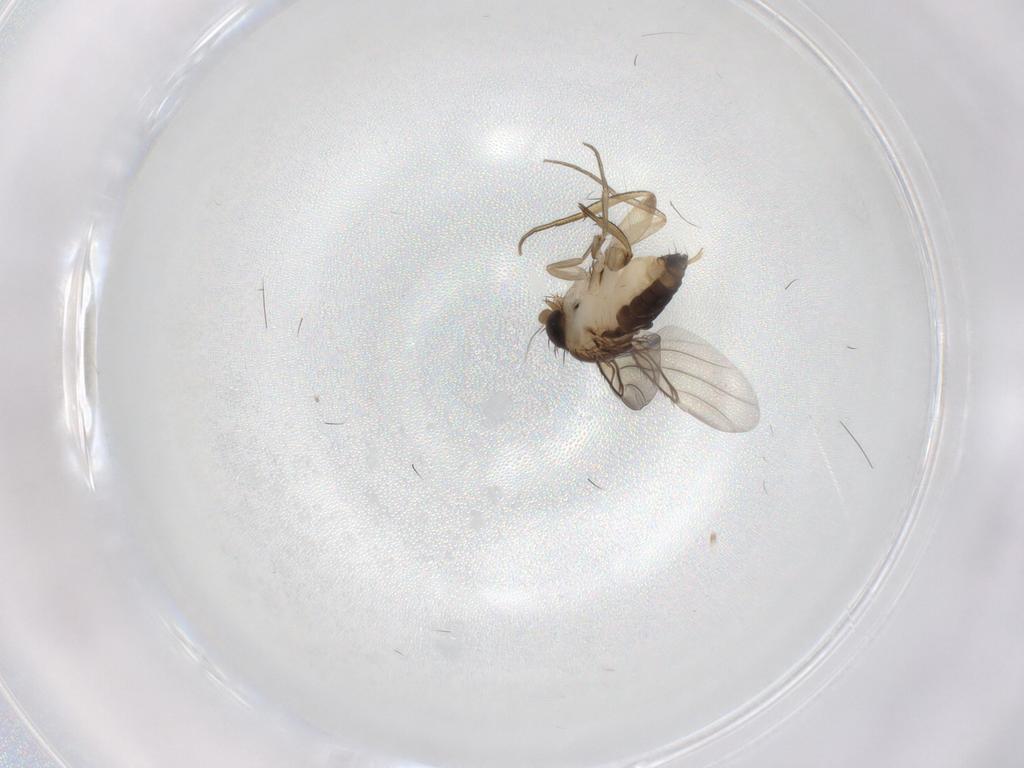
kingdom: Animalia
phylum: Arthropoda
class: Insecta
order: Diptera
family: Phoridae
